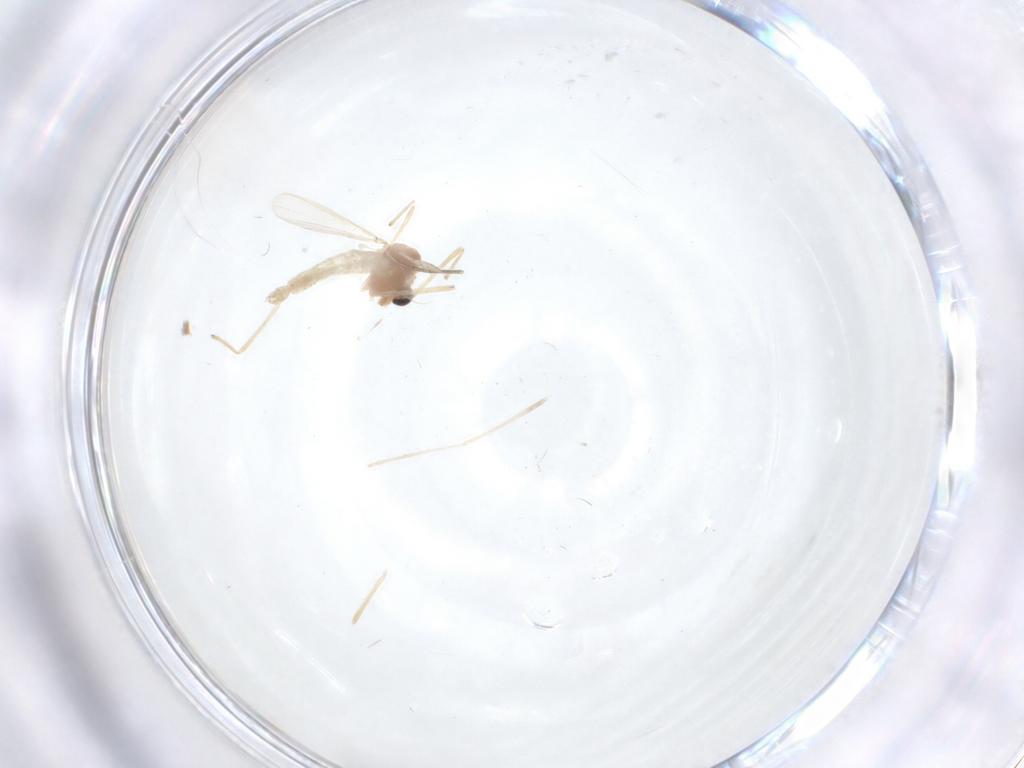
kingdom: Animalia
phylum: Arthropoda
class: Insecta
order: Diptera
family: Chironomidae
